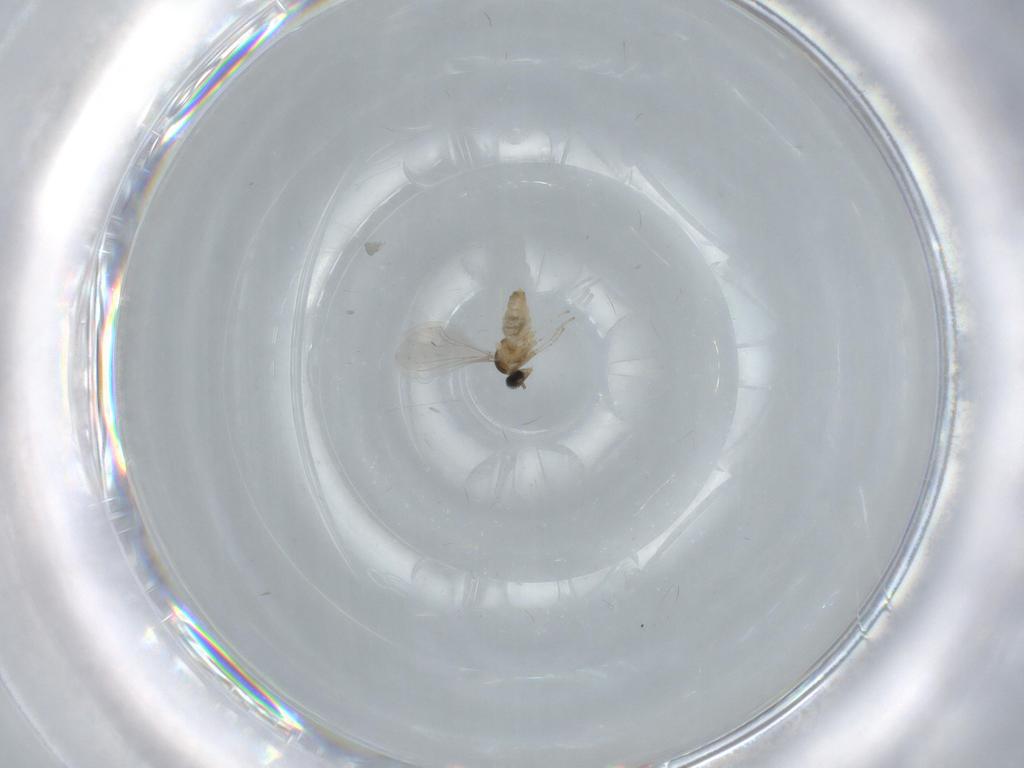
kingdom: Animalia
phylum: Arthropoda
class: Insecta
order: Diptera
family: Cecidomyiidae
